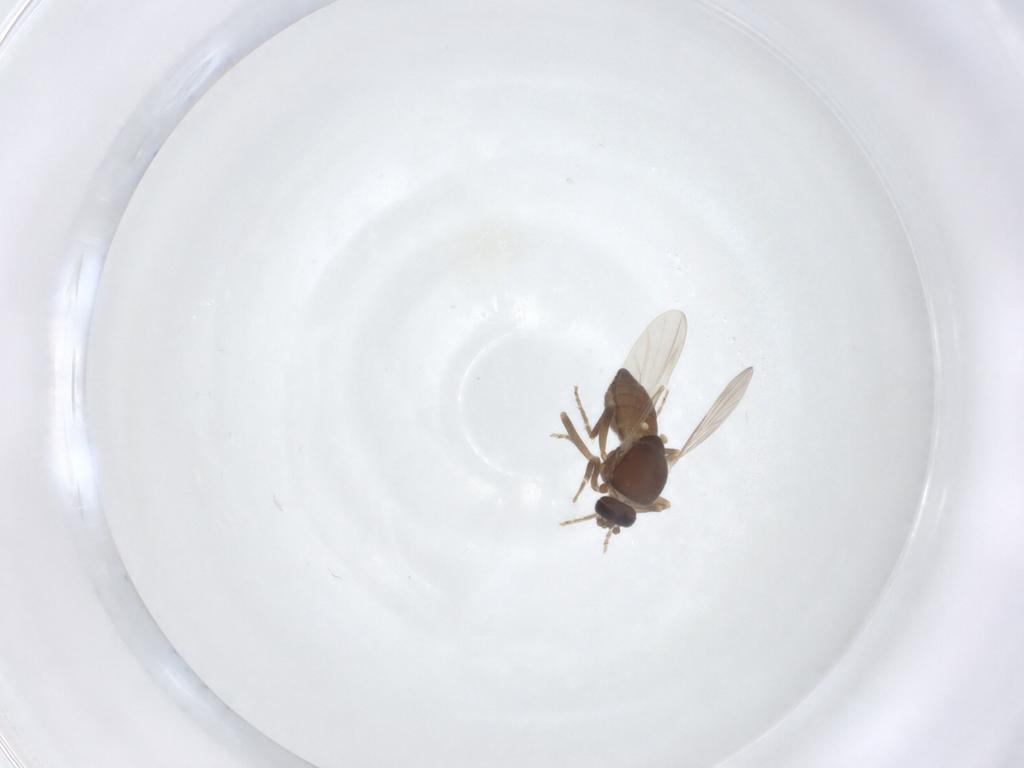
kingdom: Animalia
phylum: Arthropoda
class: Insecta
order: Diptera
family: Ceratopogonidae
